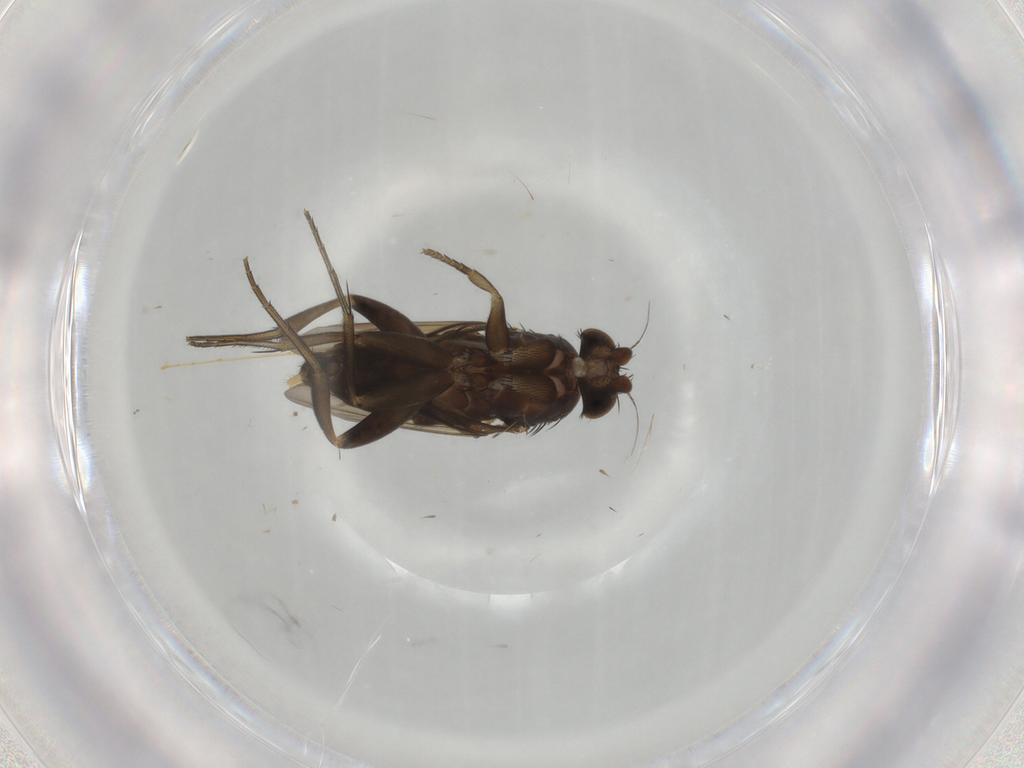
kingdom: Animalia
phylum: Arthropoda
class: Insecta
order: Diptera
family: Phoridae
